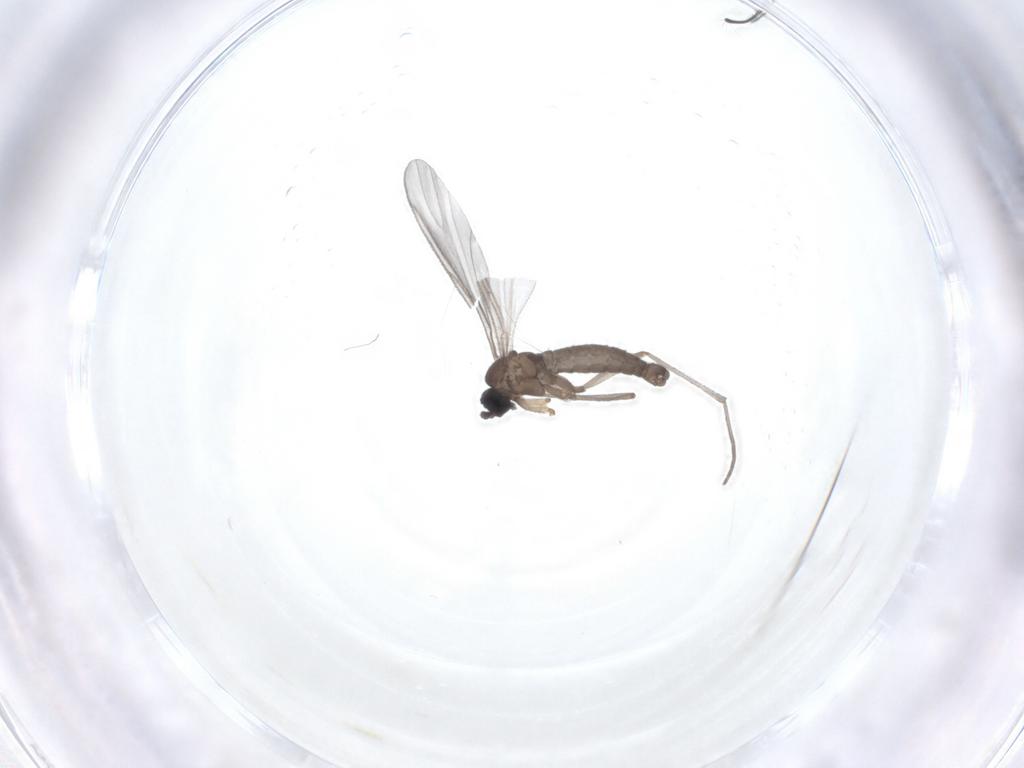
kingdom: Animalia
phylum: Arthropoda
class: Insecta
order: Diptera
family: Sciaridae
